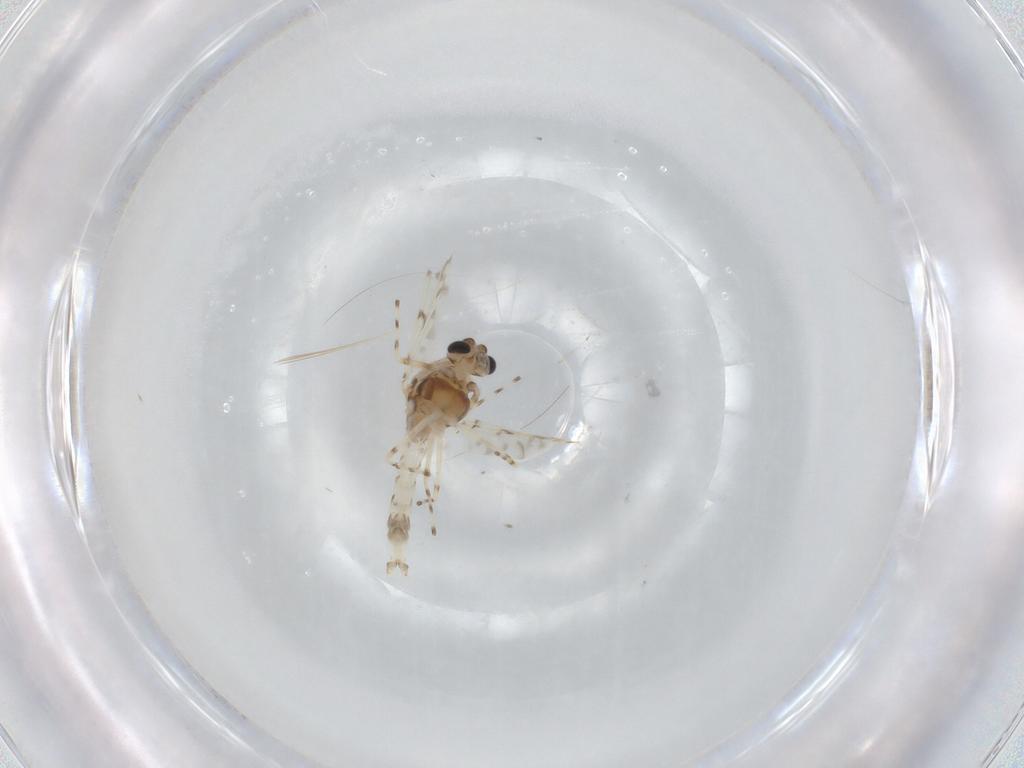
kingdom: Animalia
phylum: Arthropoda
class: Insecta
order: Diptera
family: Chironomidae
